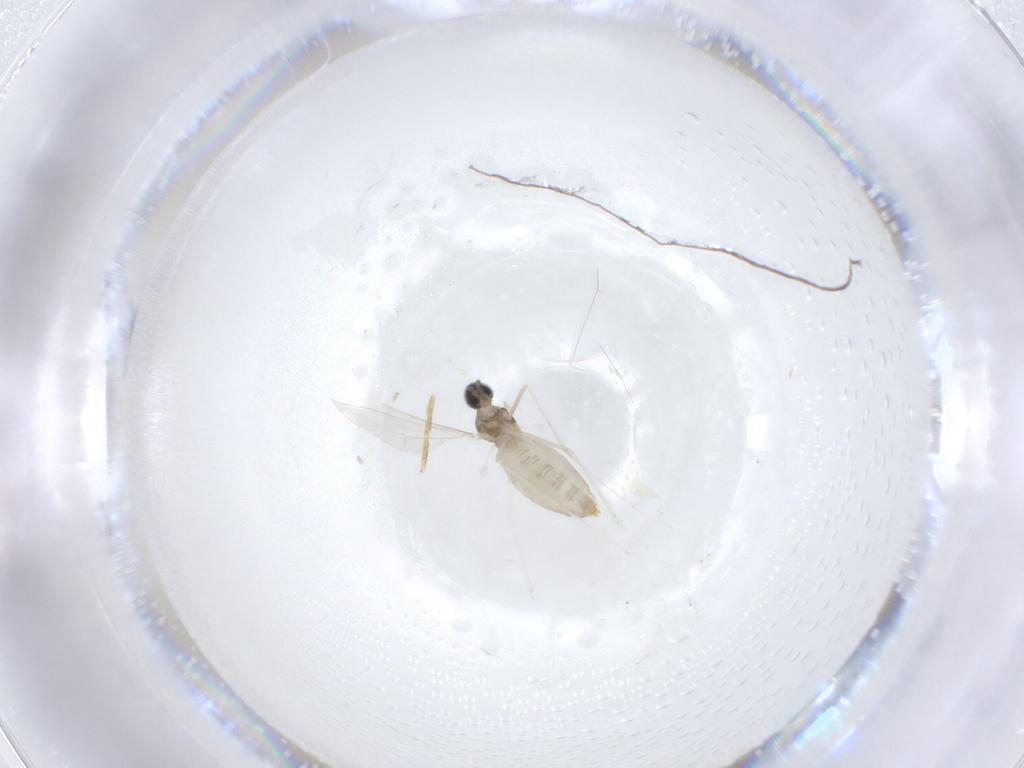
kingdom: Animalia
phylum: Arthropoda
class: Insecta
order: Diptera
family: Cecidomyiidae
